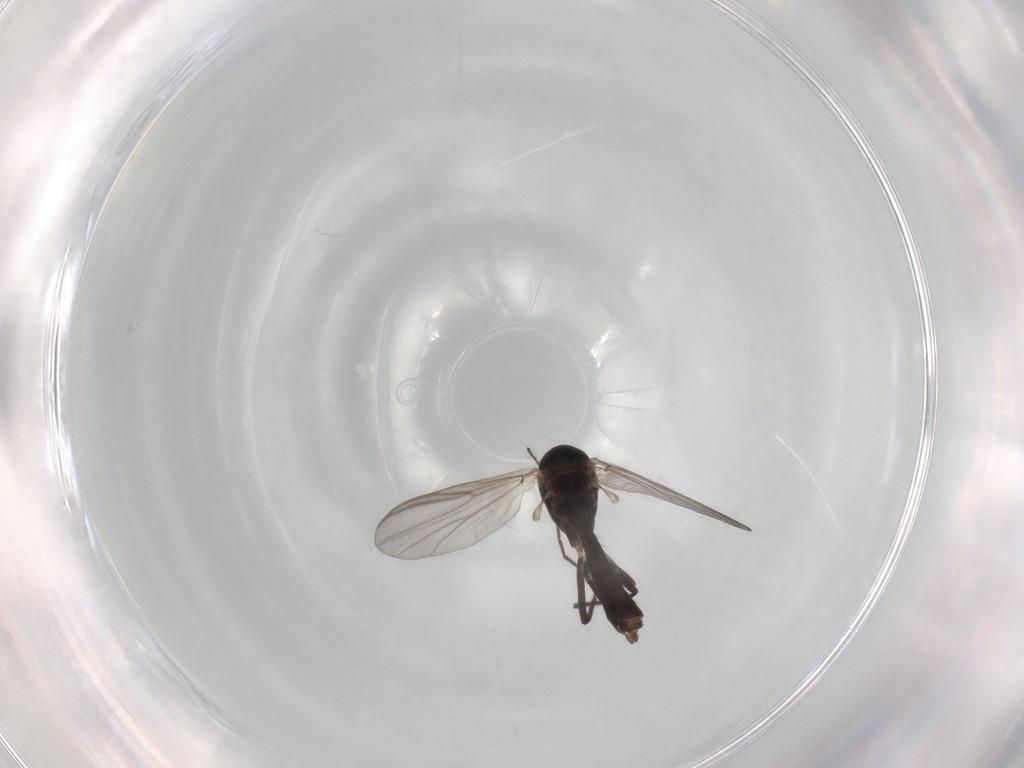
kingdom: Animalia
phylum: Arthropoda
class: Insecta
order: Diptera
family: Chironomidae
